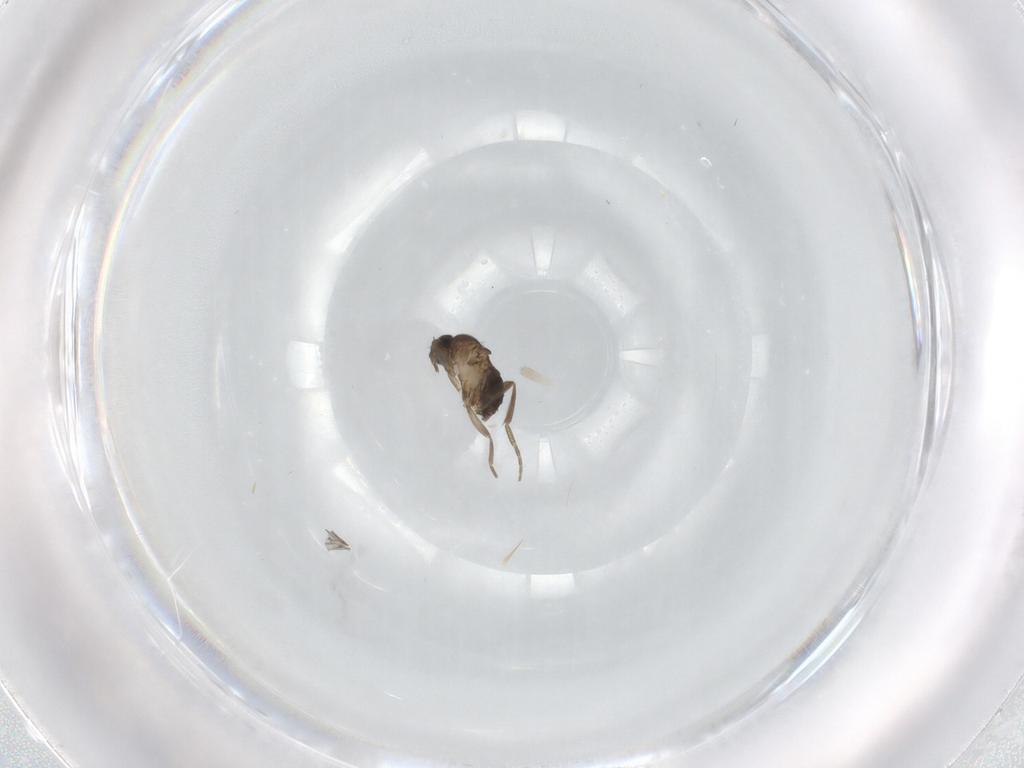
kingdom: Animalia
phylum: Arthropoda
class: Insecta
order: Diptera
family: Phoridae
